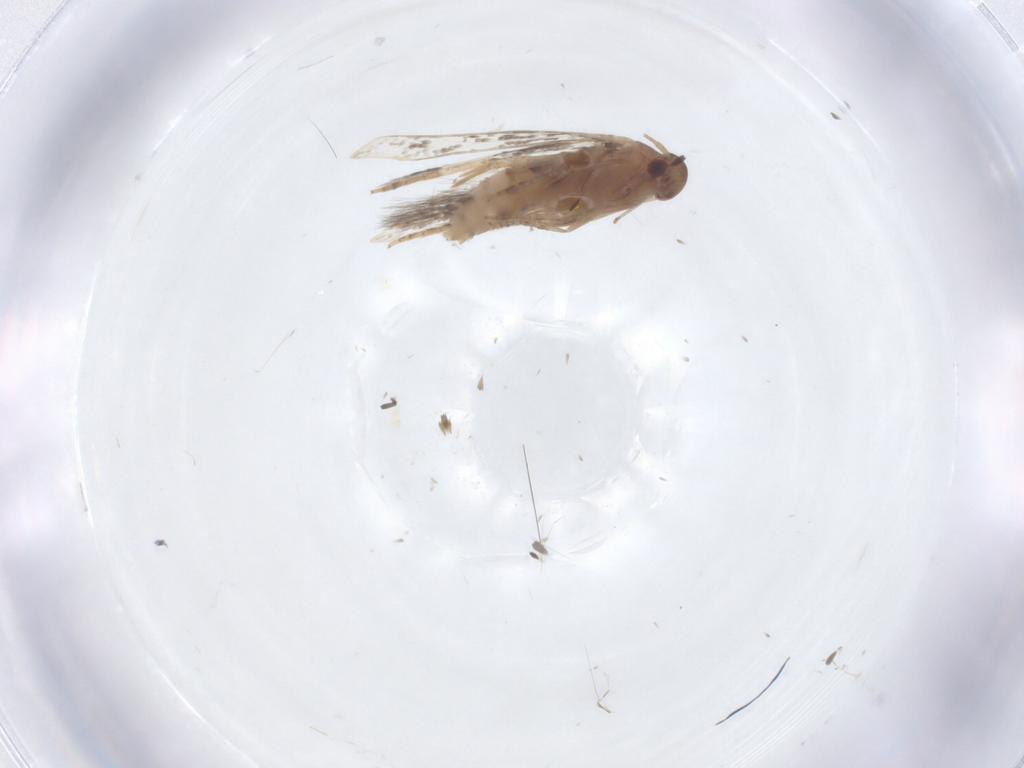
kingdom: Animalia
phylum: Arthropoda
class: Insecta
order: Lepidoptera
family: Elachistidae
